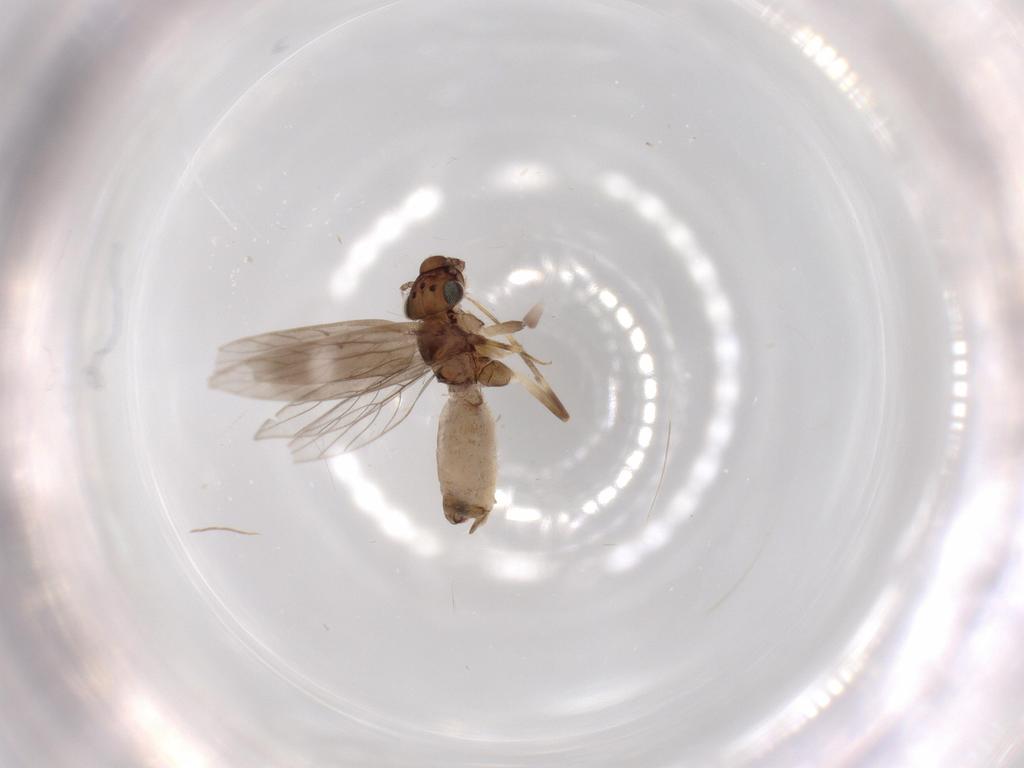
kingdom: Animalia
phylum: Arthropoda
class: Insecta
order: Psocodea
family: Lepidopsocidae
